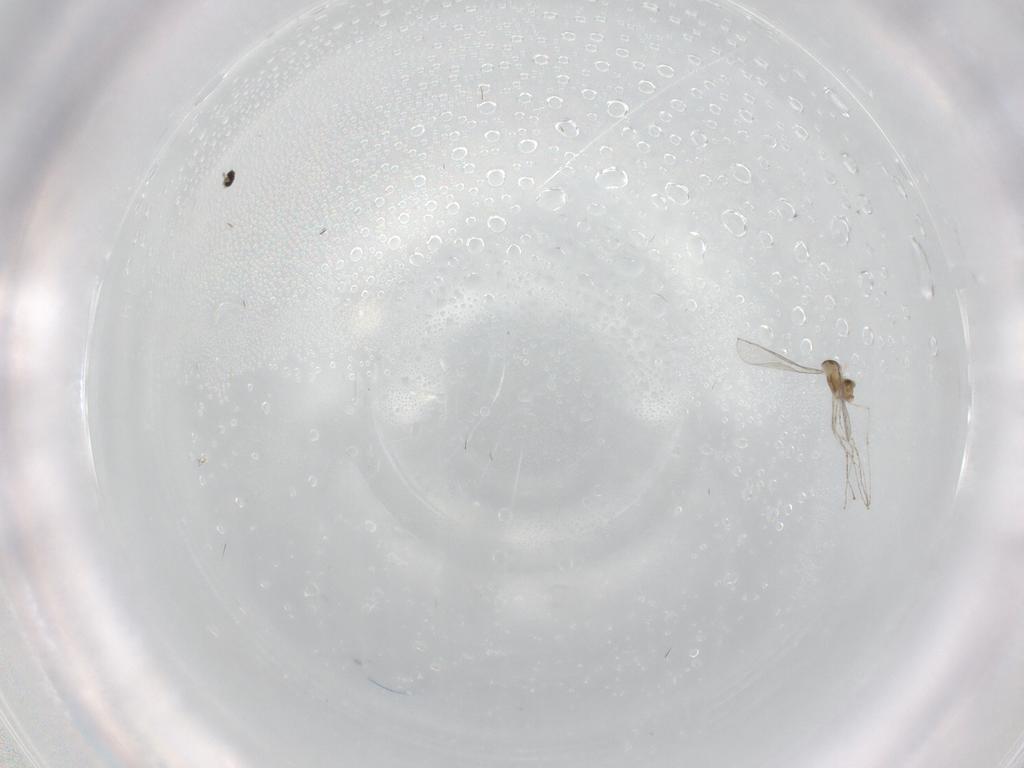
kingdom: Animalia
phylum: Arthropoda
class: Insecta
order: Diptera
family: Cecidomyiidae
